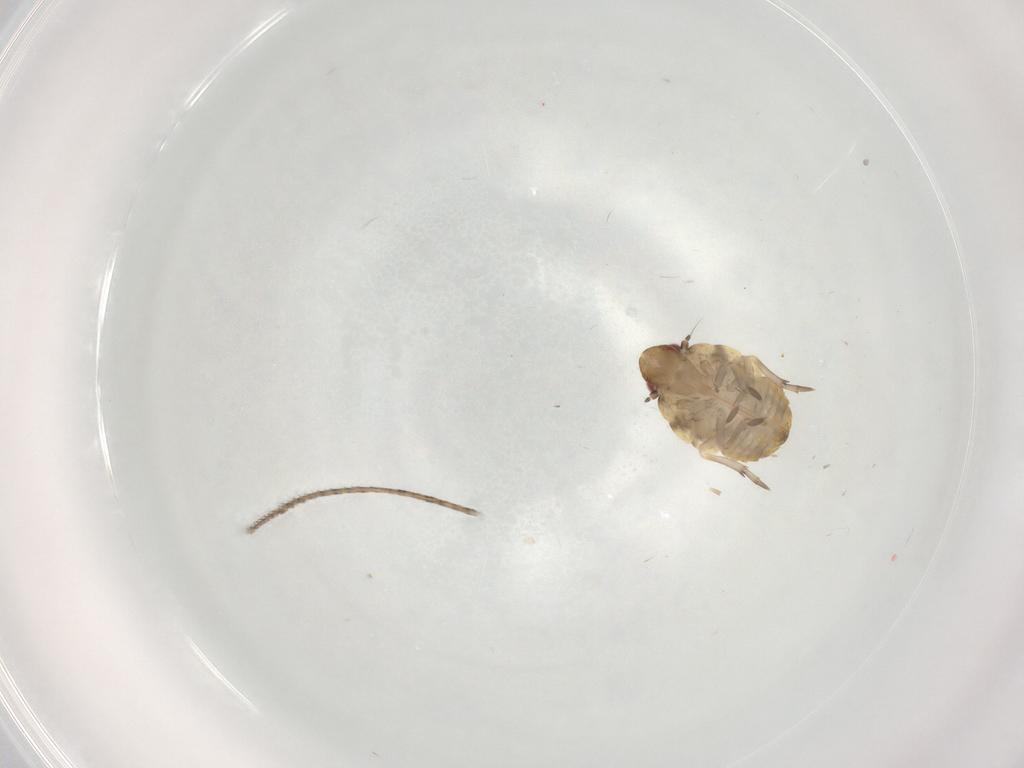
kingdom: Animalia
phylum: Arthropoda
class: Insecta
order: Hemiptera
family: Flatidae
